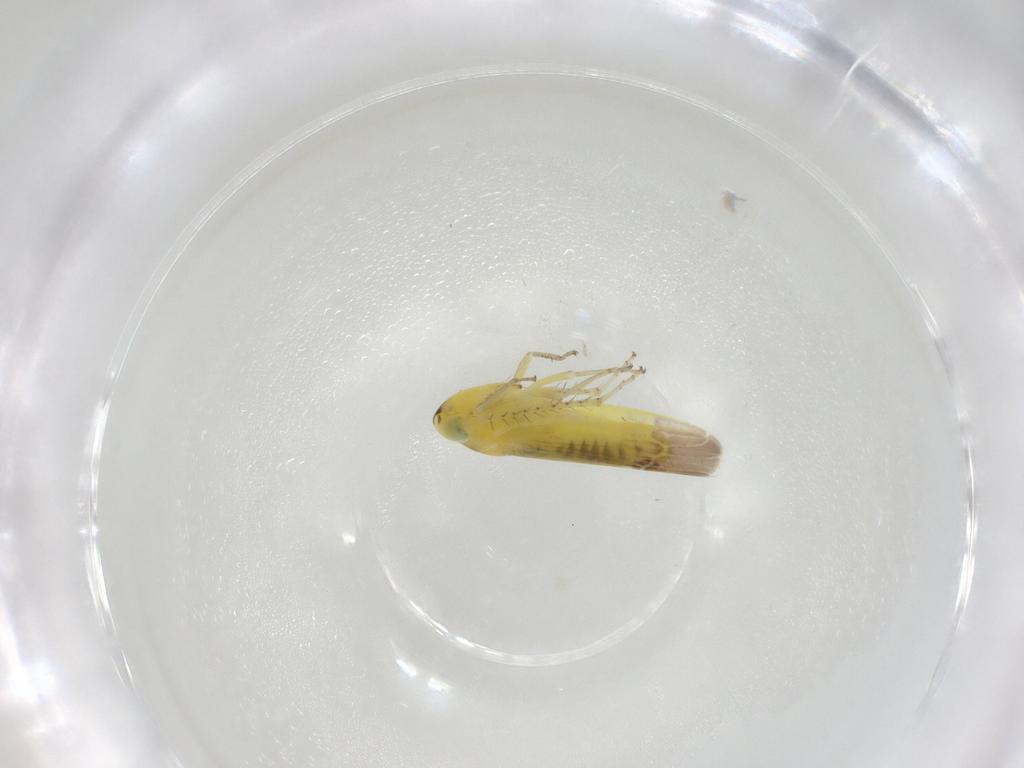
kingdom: Animalia
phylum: Arthropoda
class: Insecta
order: Hemiptera
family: Cicadellidae
